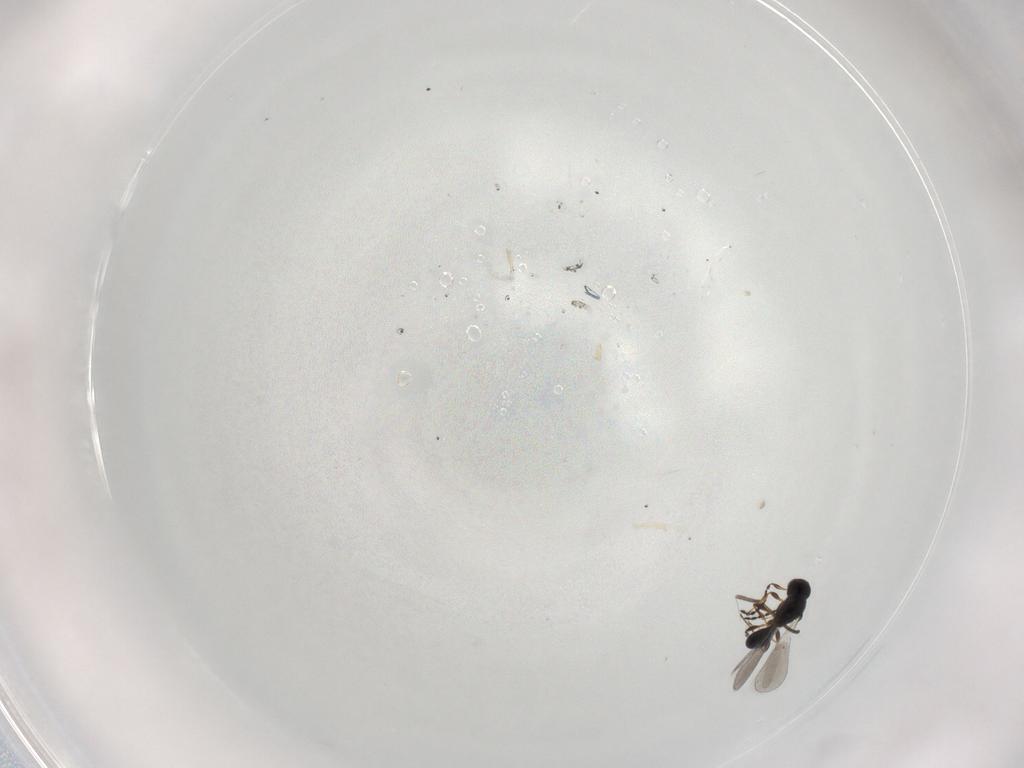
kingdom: Animalia
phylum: Arthropoda
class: Insecta
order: Hymenoptera
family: Platygastridae
